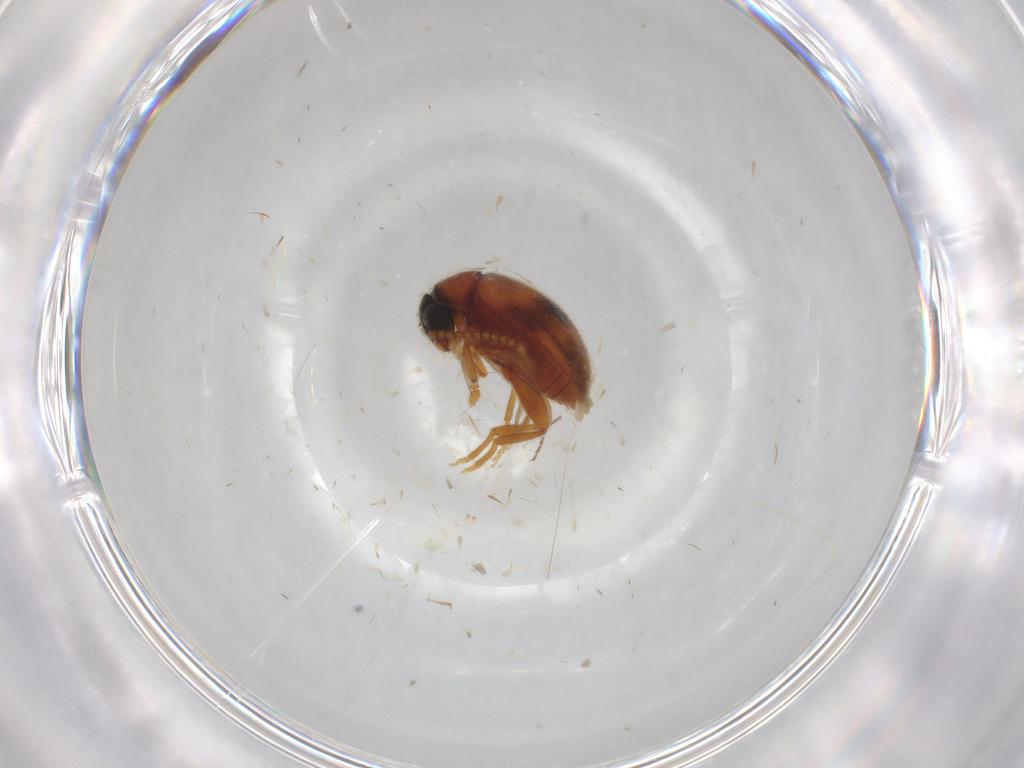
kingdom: Animalia
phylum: Arthropoda
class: Insecta
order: Coleoptera
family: Aderidae
